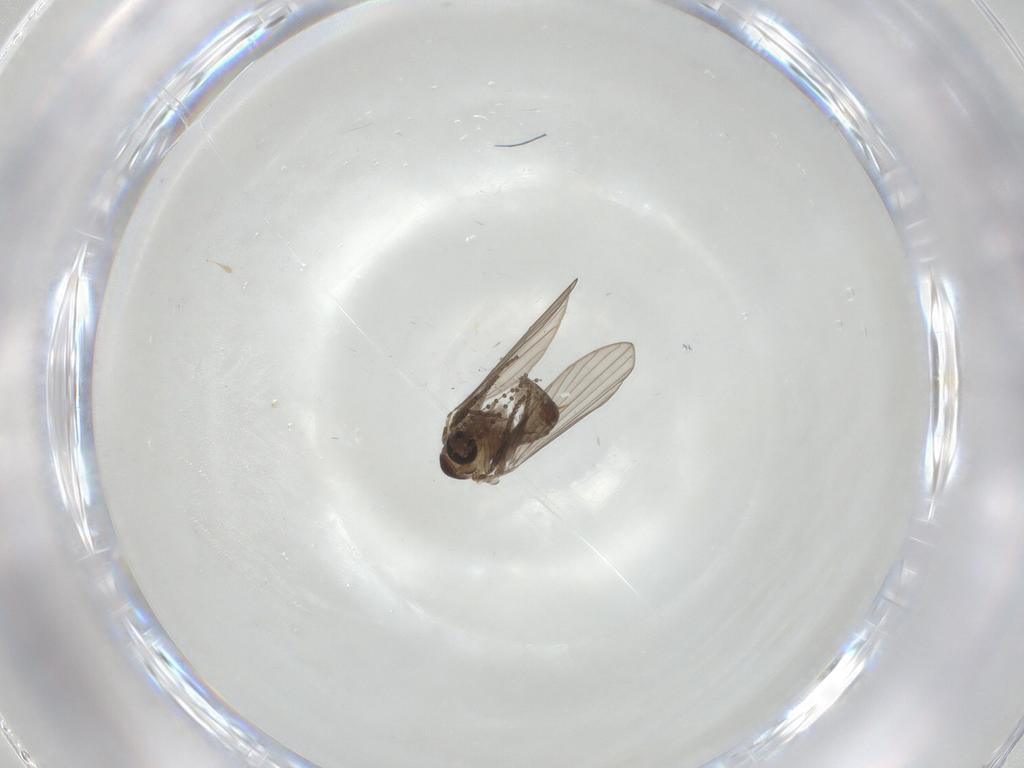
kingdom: Animalia
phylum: Arthropoda
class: Insecta
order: Diptera
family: Psychodidae
